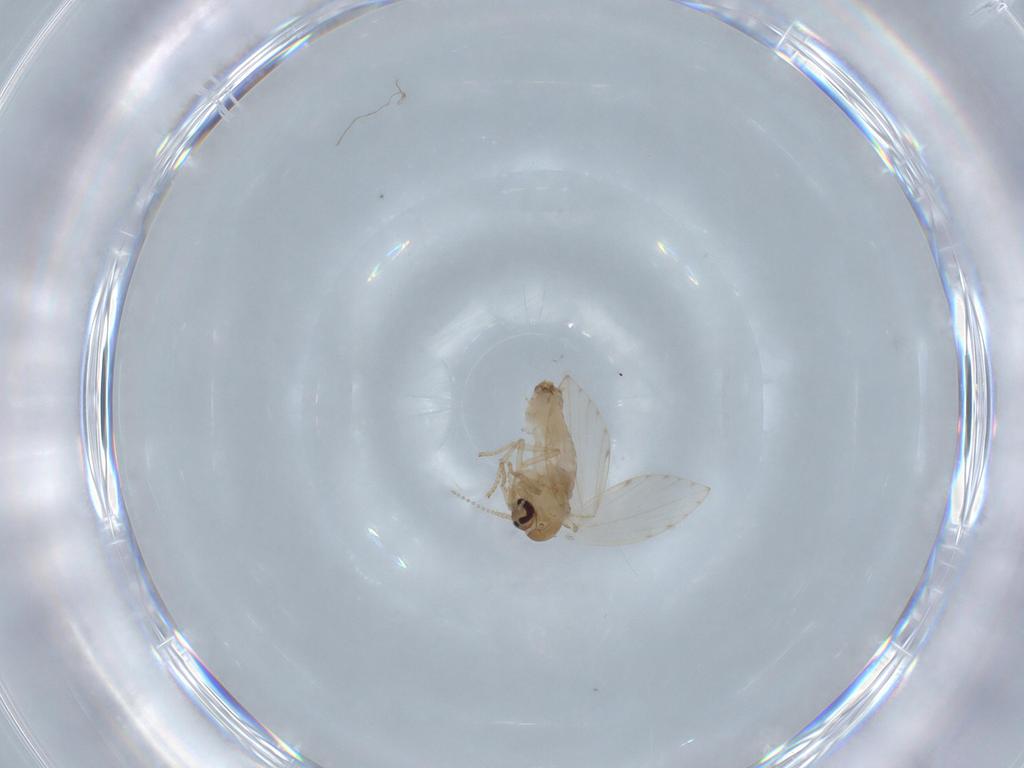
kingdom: Animalia
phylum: Arthropoda
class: Insecta
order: Diptera
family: Psychodidae
